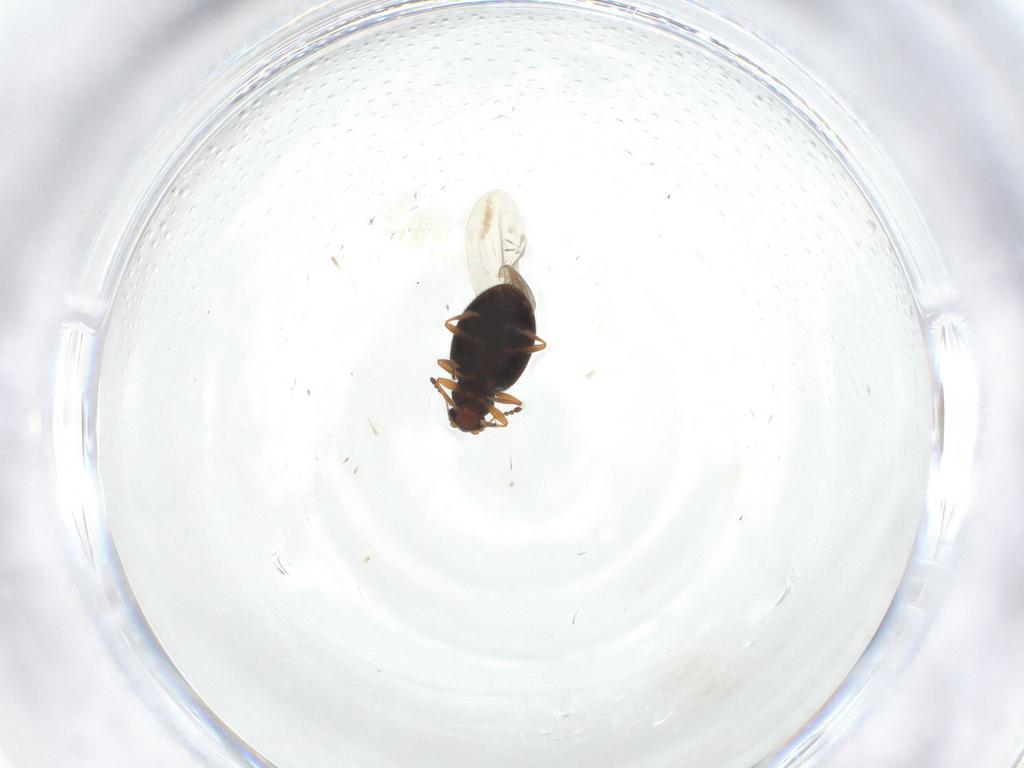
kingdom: Animalia
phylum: Arthropoda
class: Insecta
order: Coleoptera
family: Latridiidae
